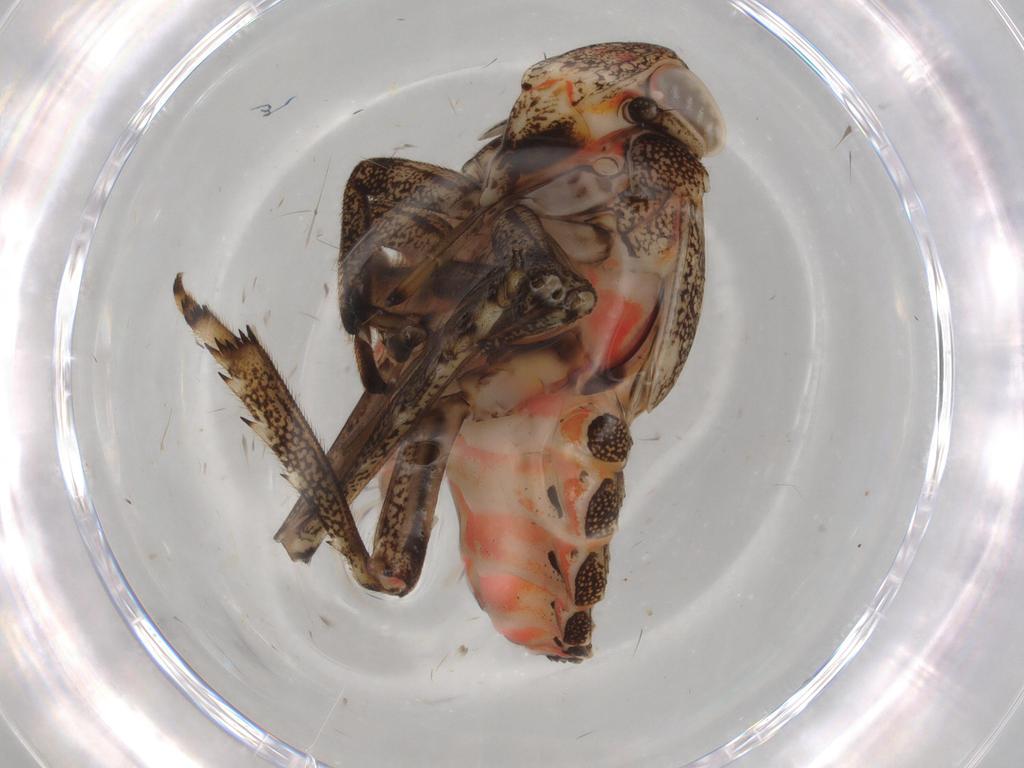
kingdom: Animalia
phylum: Arthropoda
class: Insecta
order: Hemiptera
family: Issidae
